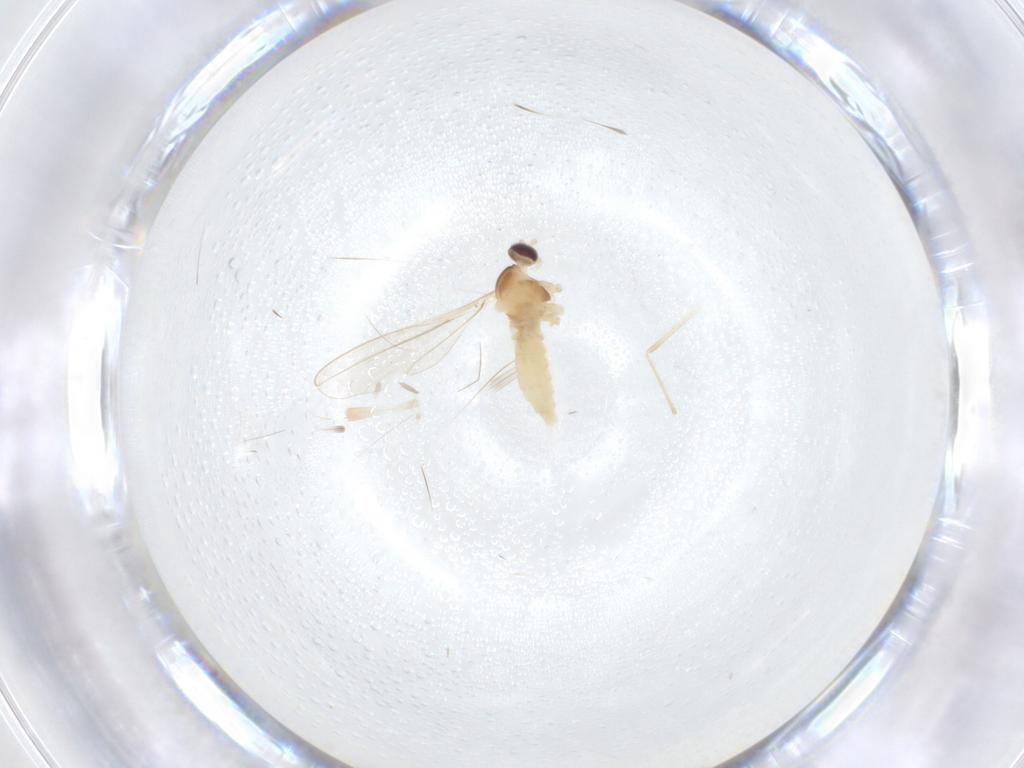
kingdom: Animalia
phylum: Arthropoda
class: Insecta
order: Diptera
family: Cecidomyiidae
